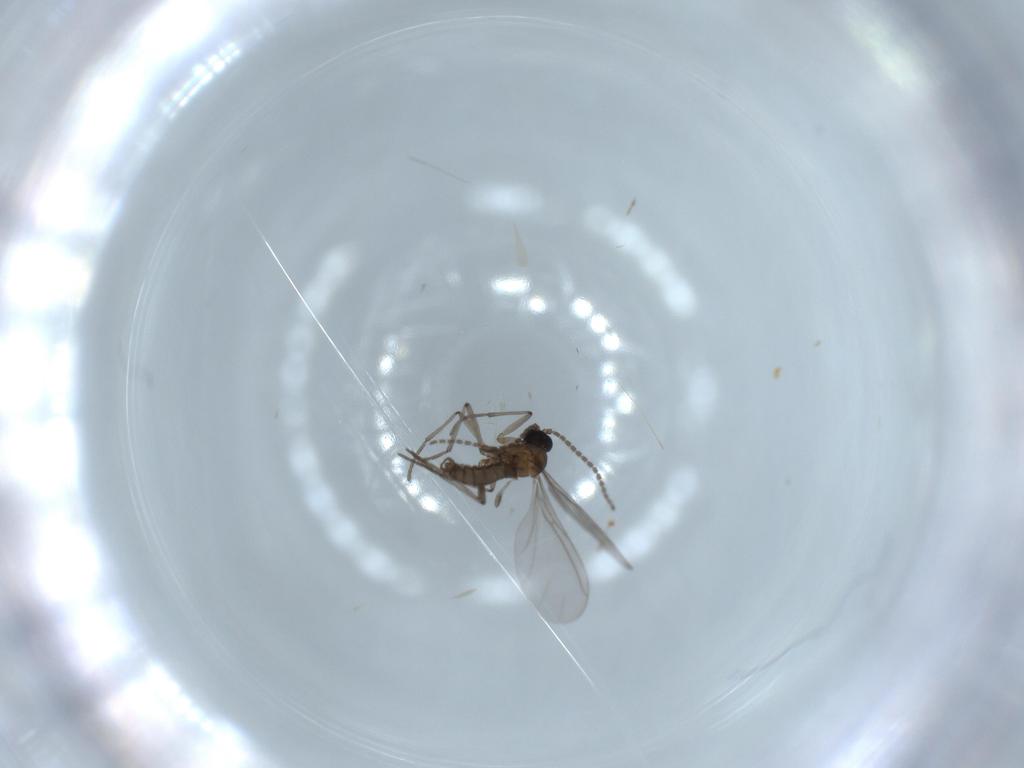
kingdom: Animalia
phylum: Arthropoda
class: Insecta
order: Diptera
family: Sciaridae
